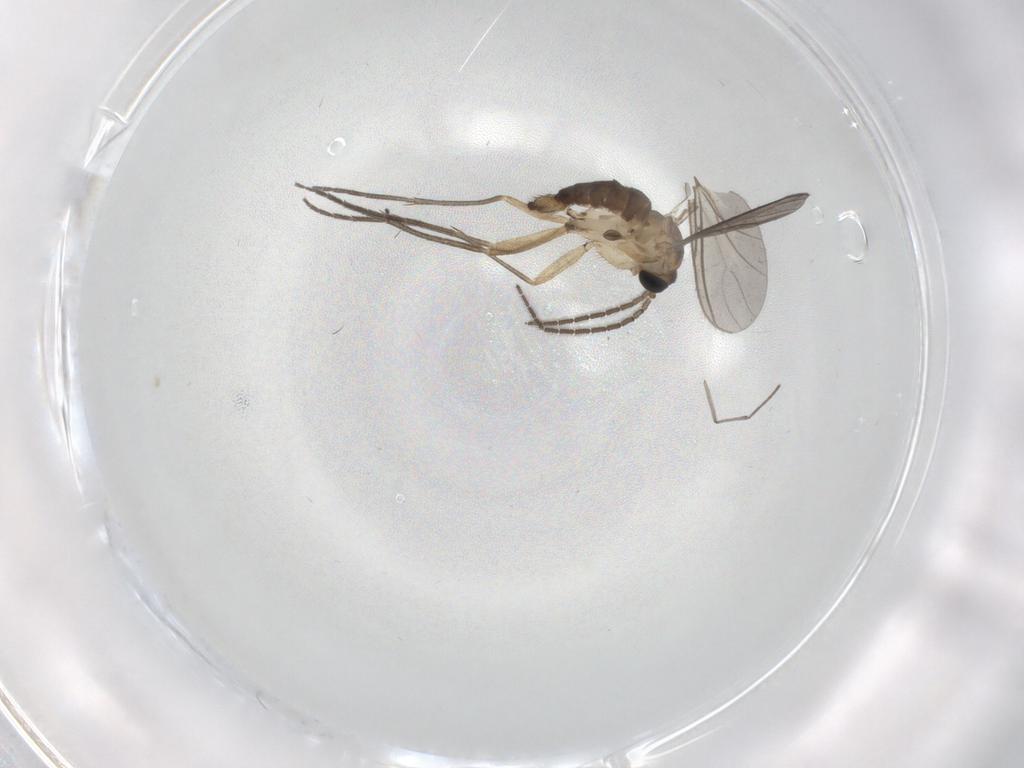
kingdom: Animalia
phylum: Arthropoda
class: Insecta
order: Diptera
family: Sciaridae
